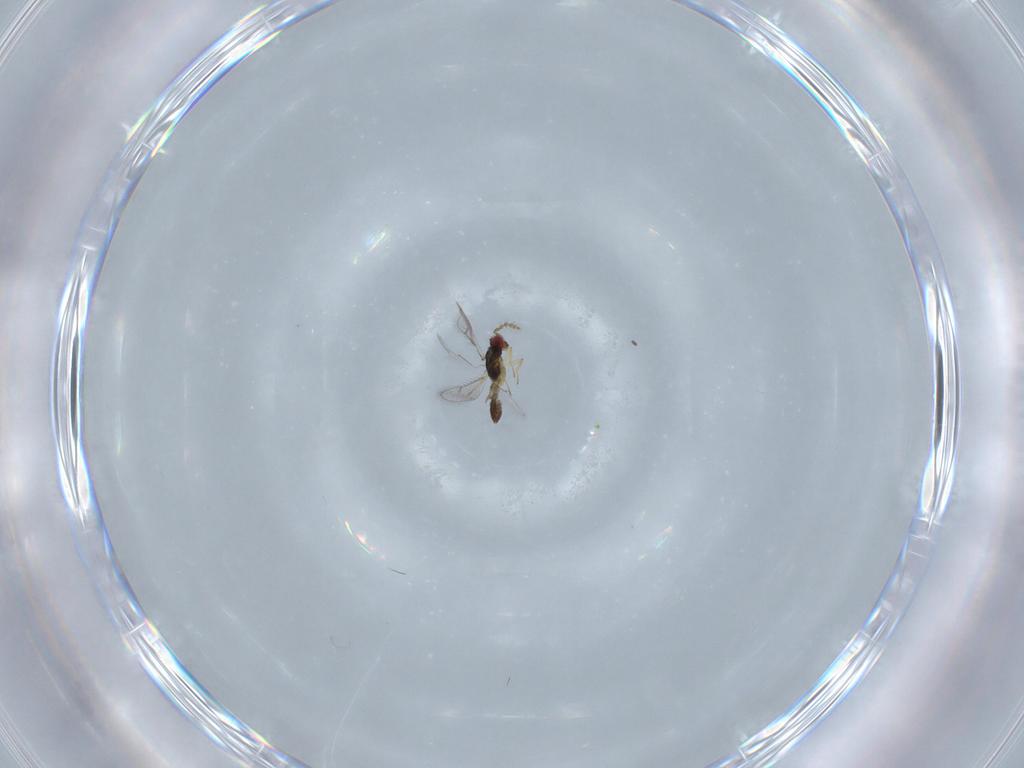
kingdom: Animalia
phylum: Arthropoda
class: Insecta
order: Hymenoptera
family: Eulophidae
